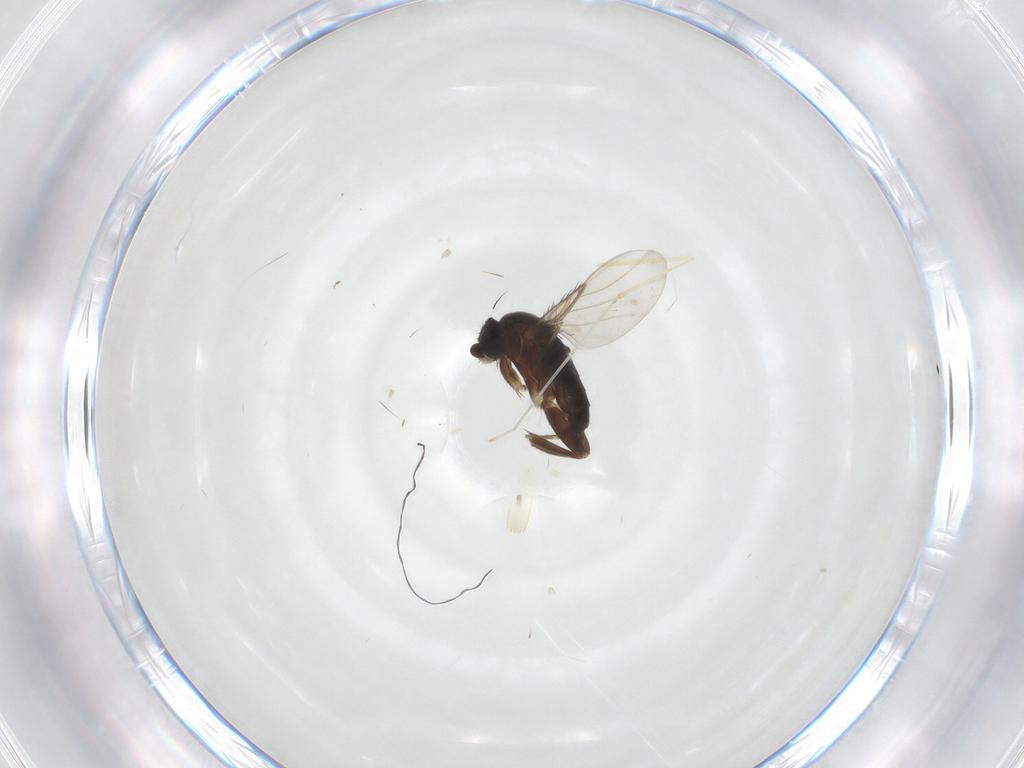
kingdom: Animalia
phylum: Arthropoda
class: Insecta
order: Diptera
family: Phoridae
